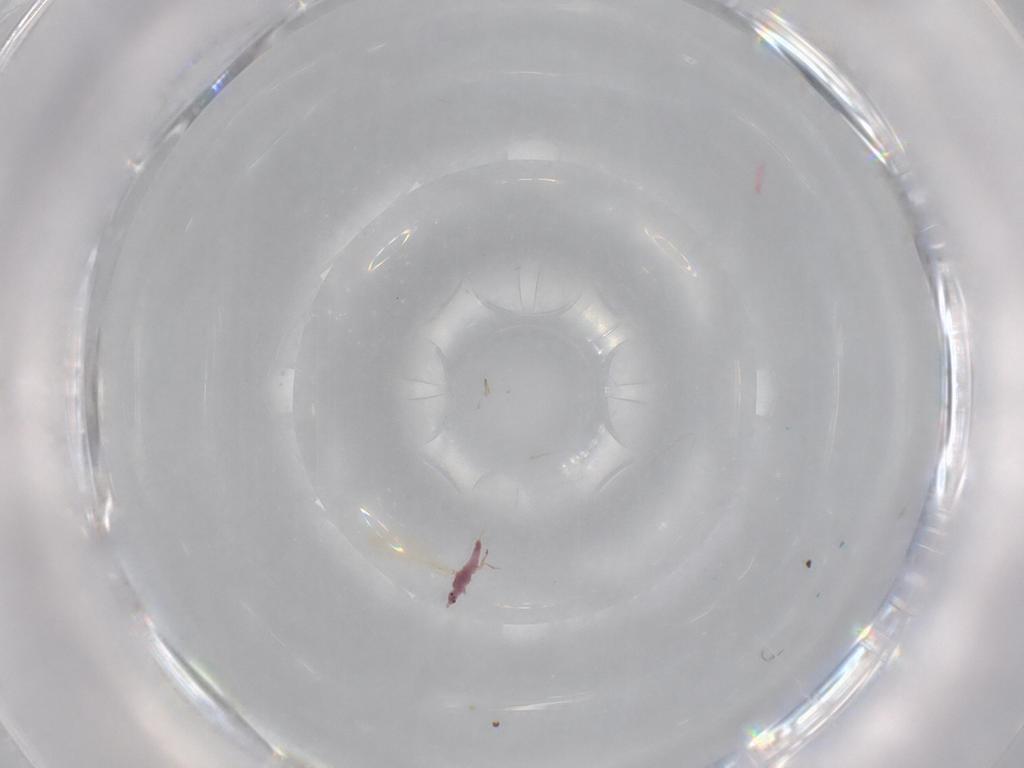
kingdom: Animalia
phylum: Arthropoda
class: Insecta
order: Hemiptera
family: Pseudococcidae
